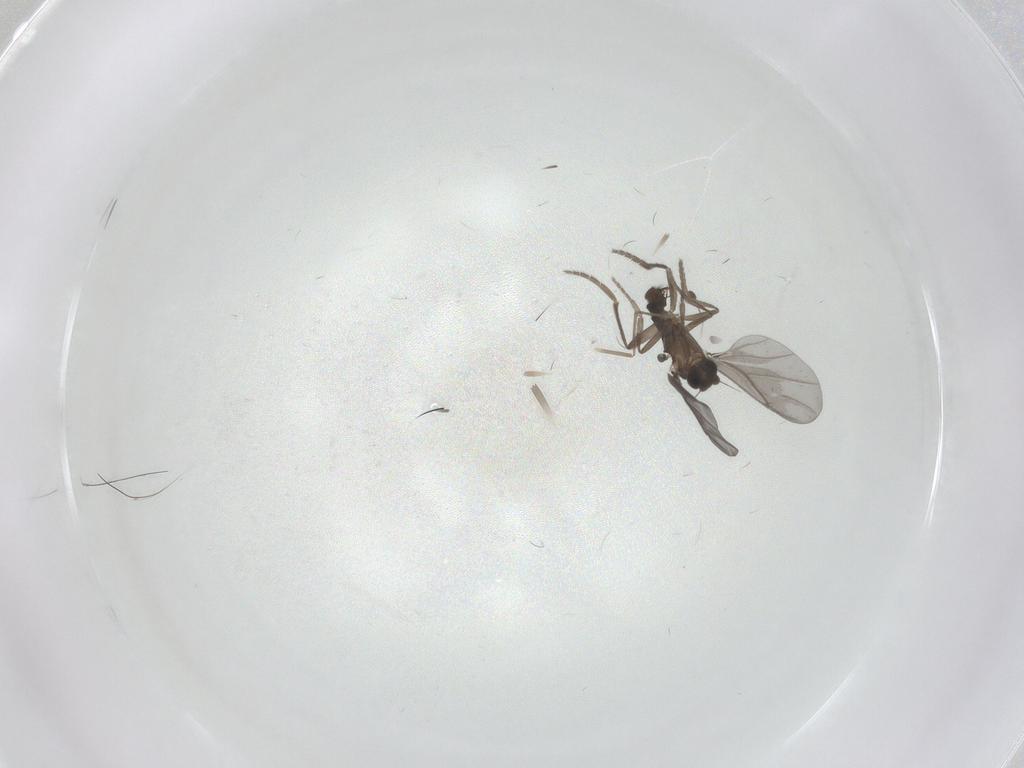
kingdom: Animalia
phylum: Arthropoda
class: Insecta
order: Diptera
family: Phoridae
